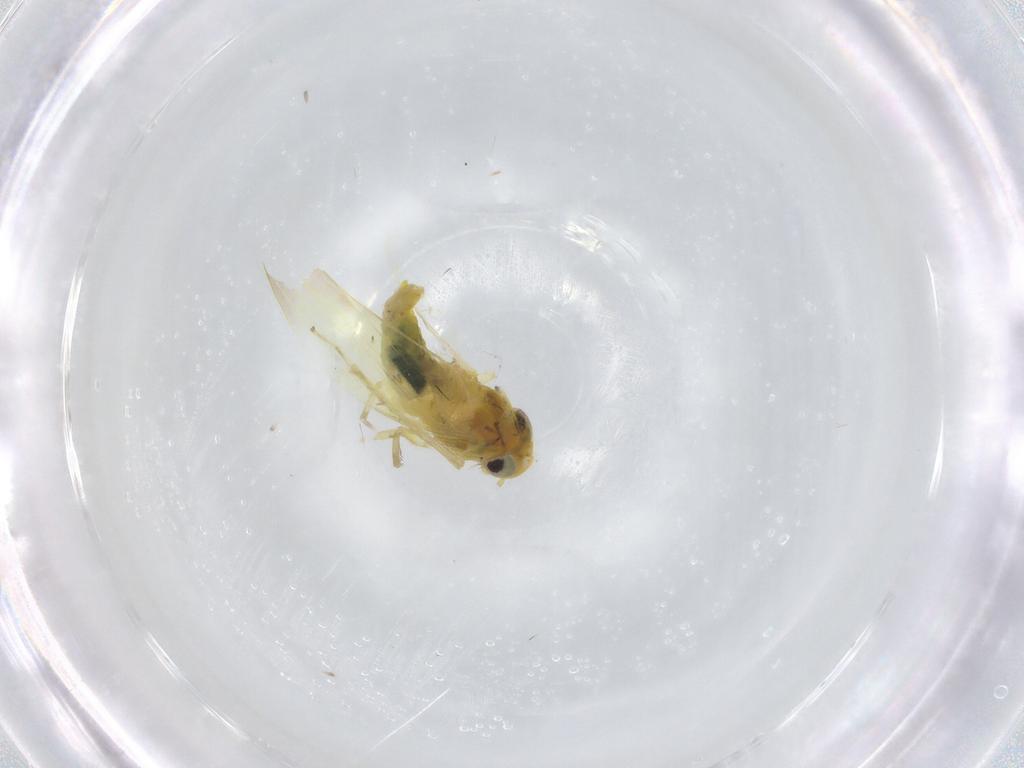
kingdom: Animalia
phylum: Arthropoda
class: Insecta
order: Hemiptera
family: Cicadellidae
